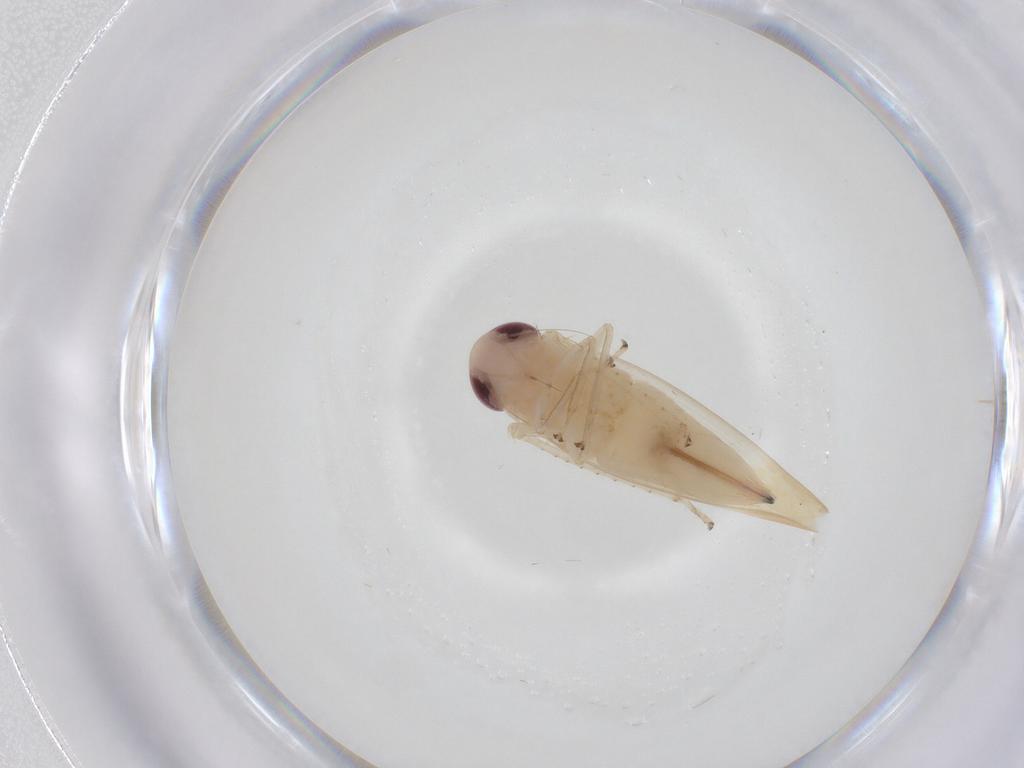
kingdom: Animalia
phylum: Arthropoda
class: Insecta
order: Hemiptera
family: Cicadellidae
